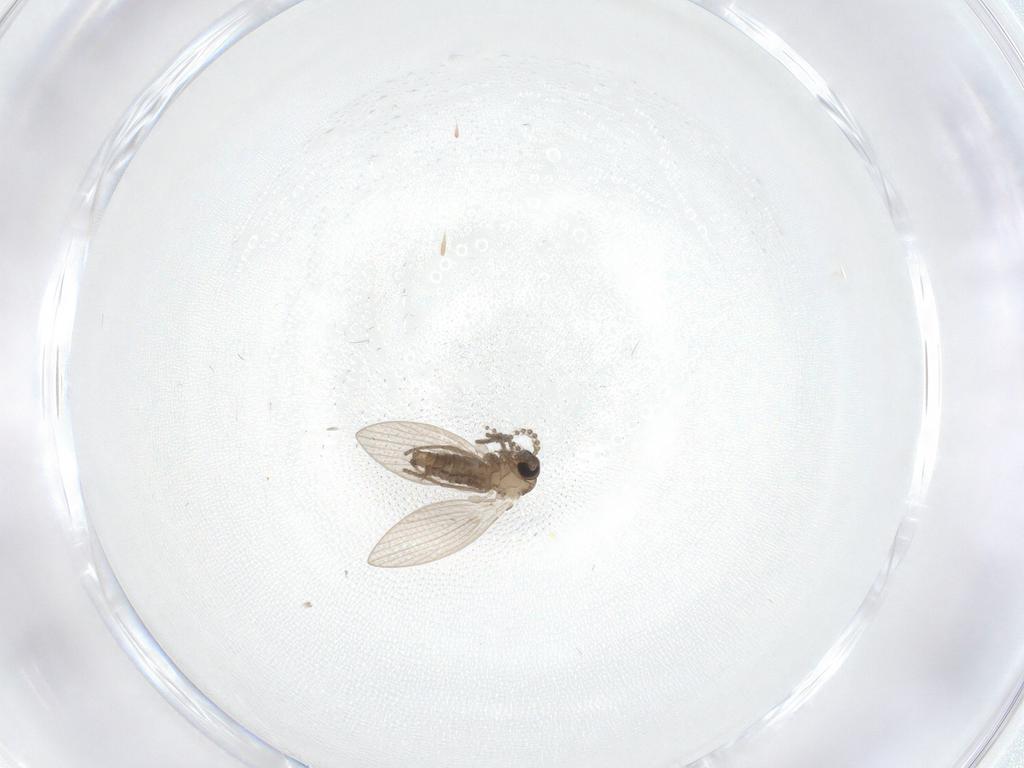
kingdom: Animalia
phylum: Arthropoda
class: Insecta
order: Diptera
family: Psychodidae
